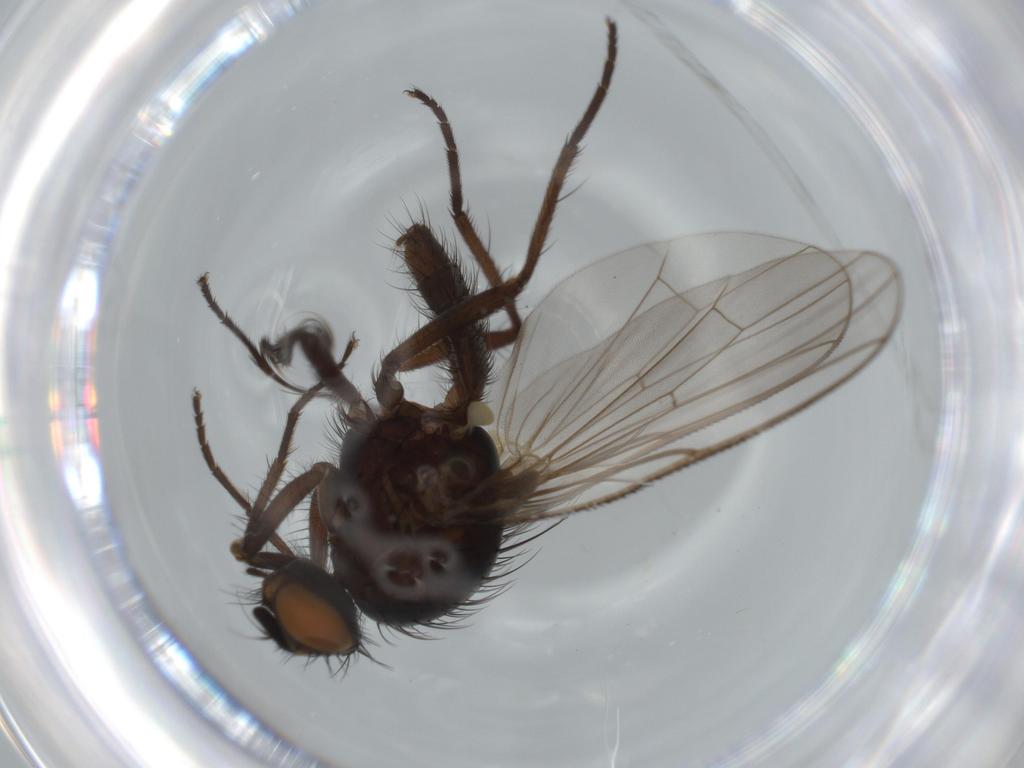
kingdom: Animalia
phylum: Arthropoda
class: Insecta
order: Diptera
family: Anthomyiidae
